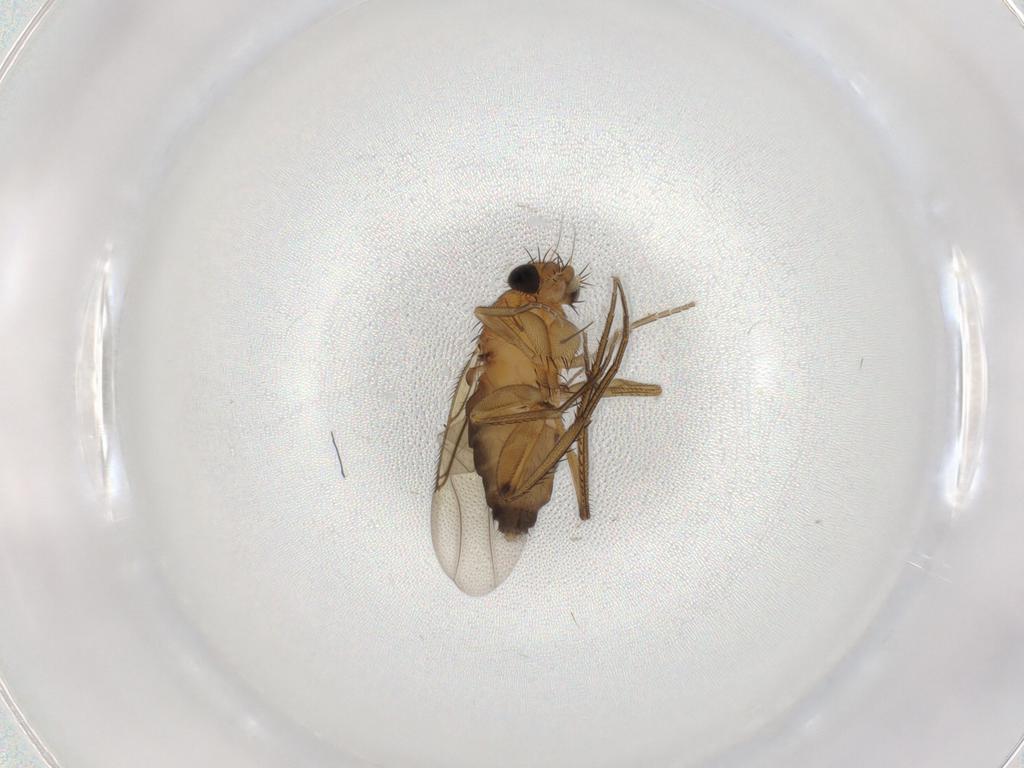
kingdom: Animalia
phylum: Arthropoda
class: Insecta
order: Diptera
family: Phoridae
